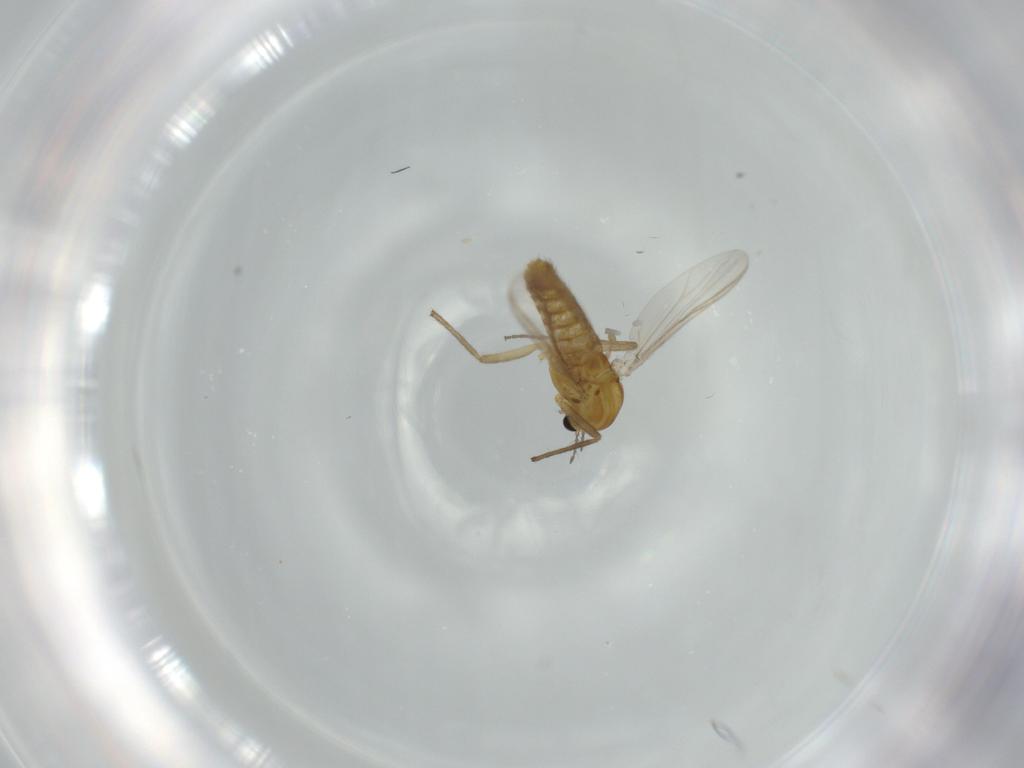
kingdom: Animalia
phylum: Arthropoda
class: Insecta
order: Diptera
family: Chironomidae
